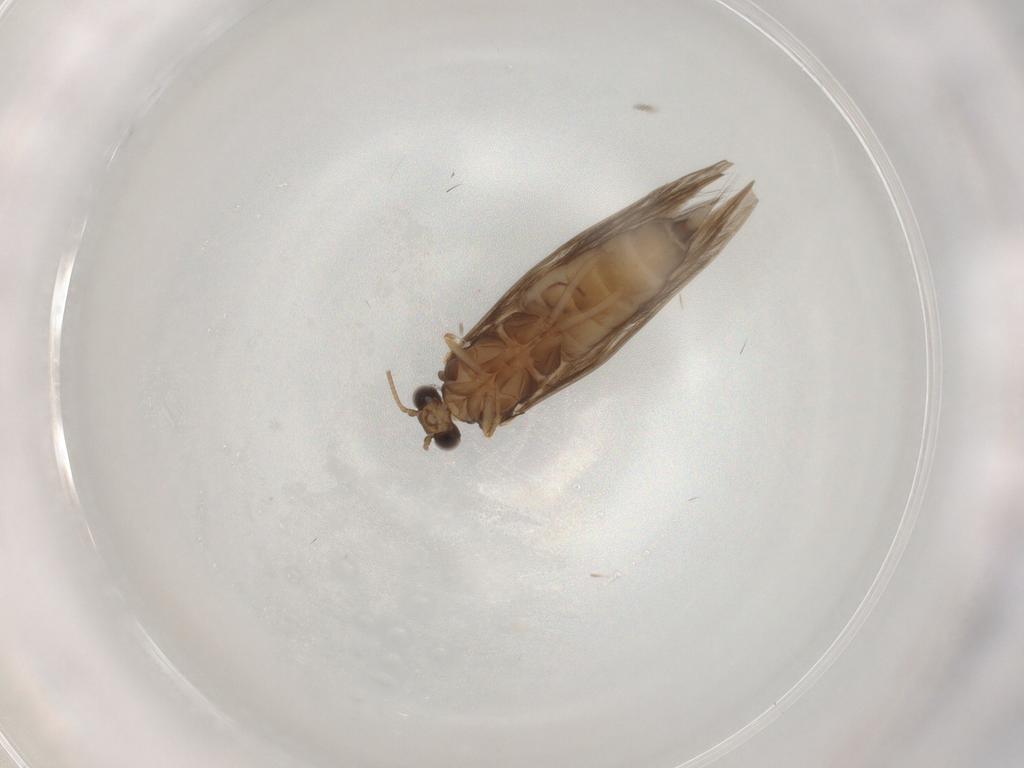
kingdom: Animalia
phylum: Arthropoda
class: Insecta
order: Trichoptera
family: Hydroptilidae
